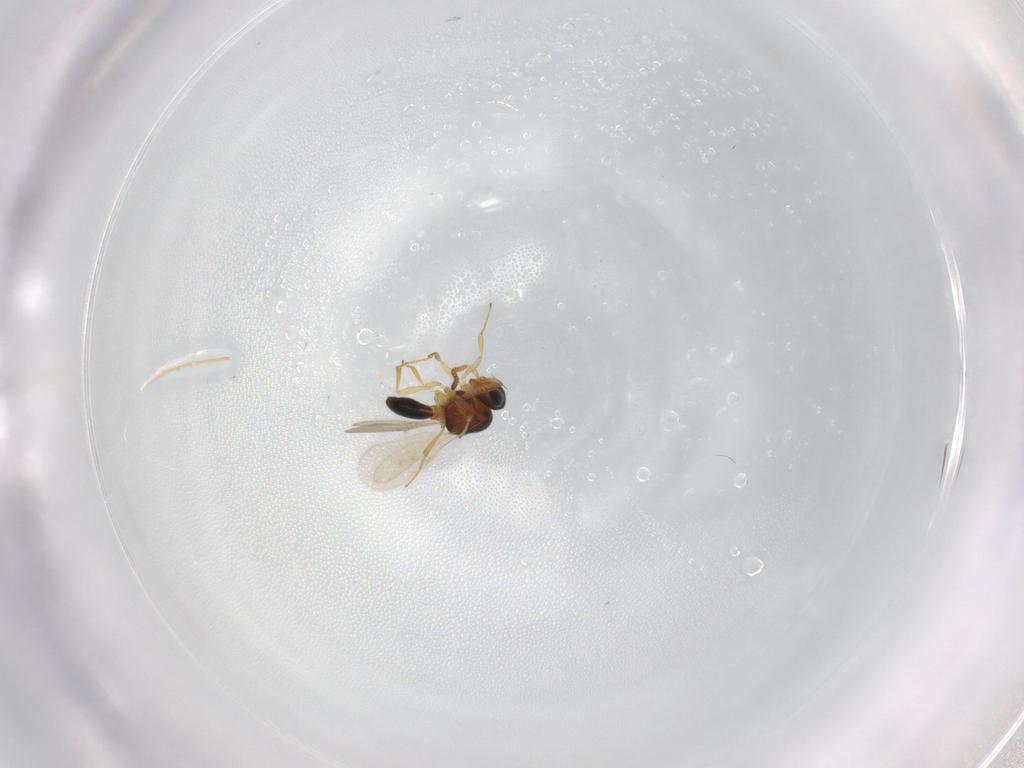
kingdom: Animalia
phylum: Arthropoda
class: Insecta
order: Hymenoptera
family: Scelionidae
